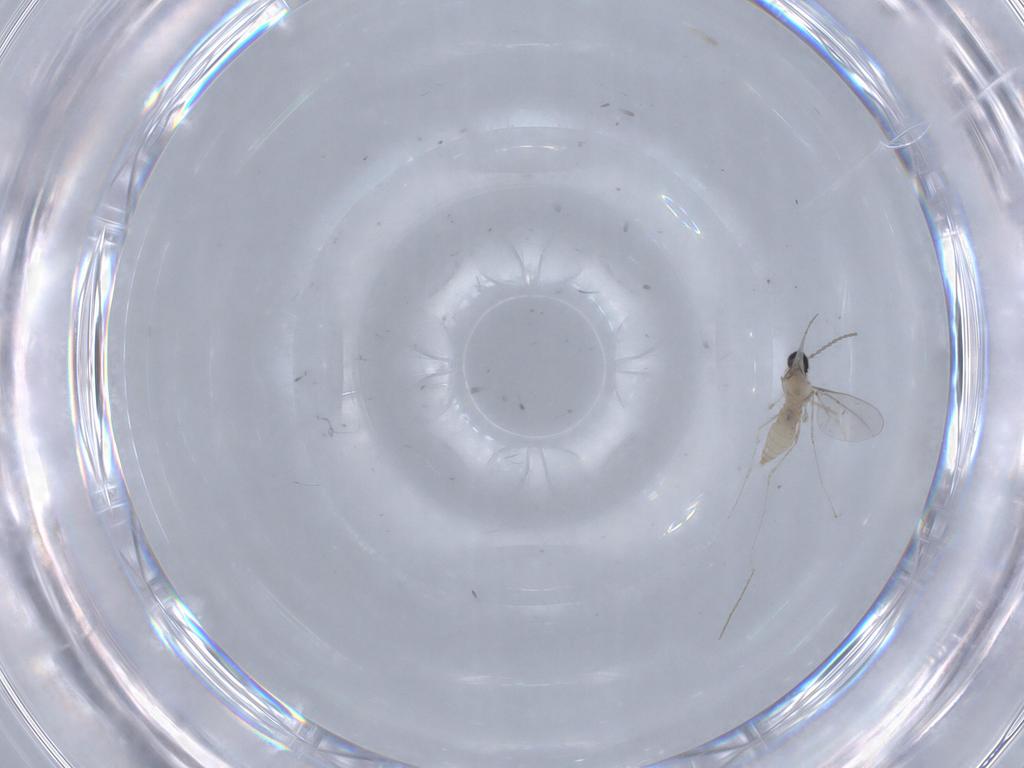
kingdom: Animalia
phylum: Arthropoda
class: Insecta
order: Diptera
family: Cecidomyiidae
